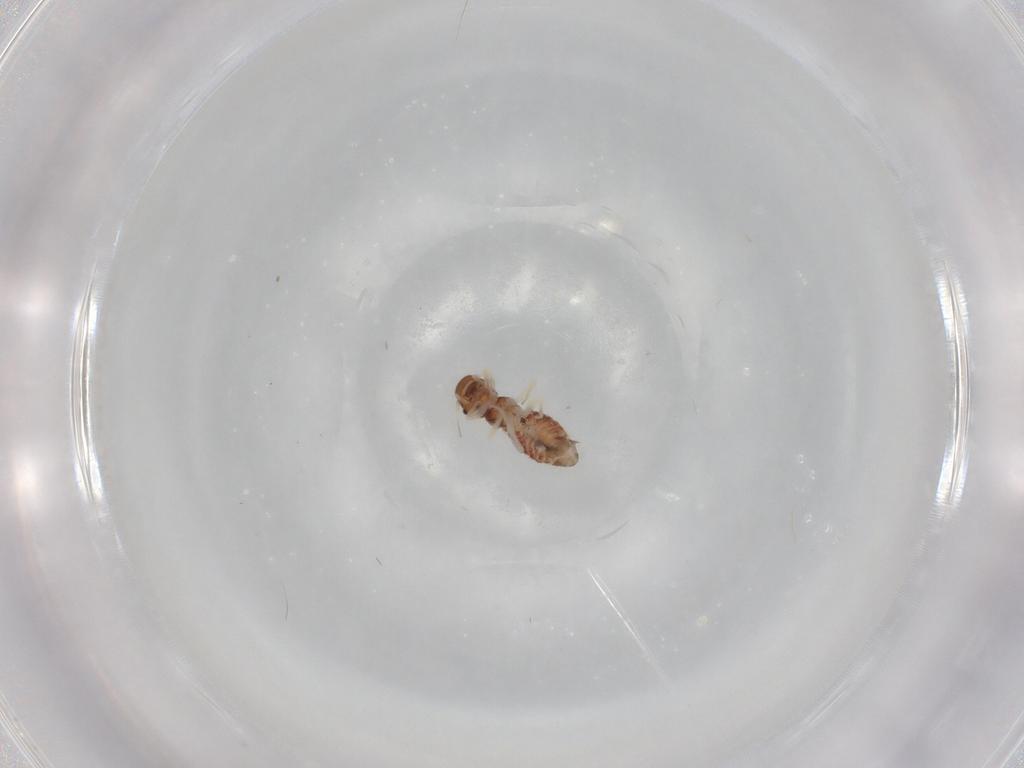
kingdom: Animalia
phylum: Arthropoda
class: Insecta
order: Psocodea
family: Archipsocidae
